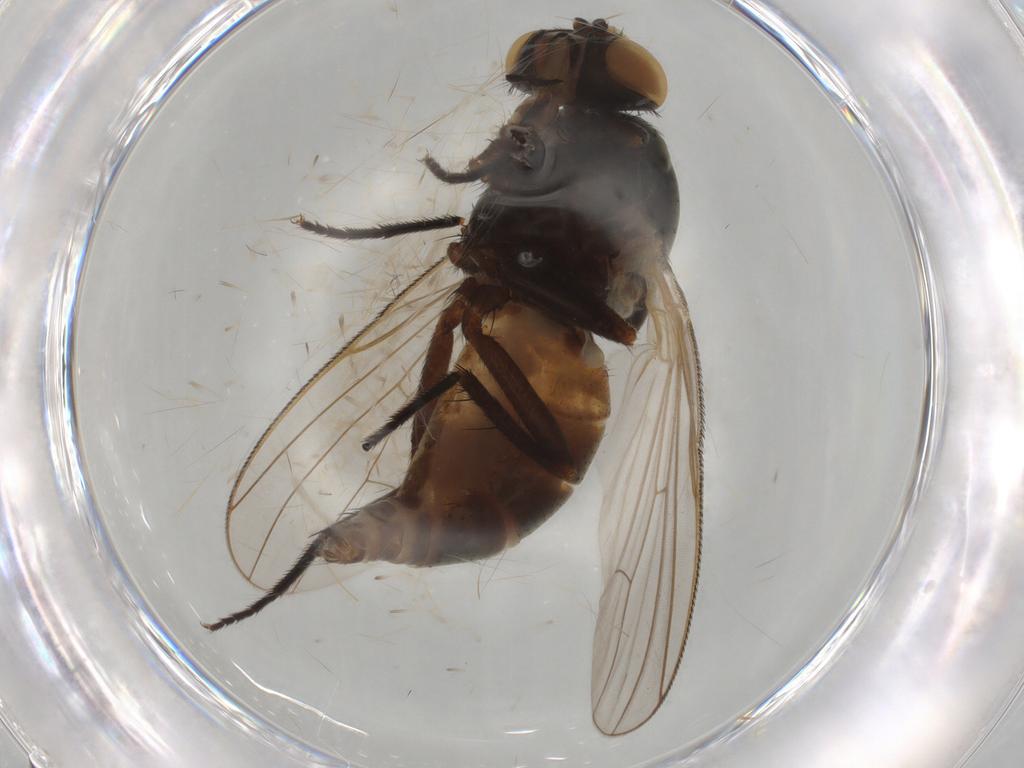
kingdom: Animalia
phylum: Arthropoda
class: Insecta
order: Diptera
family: Fannia
